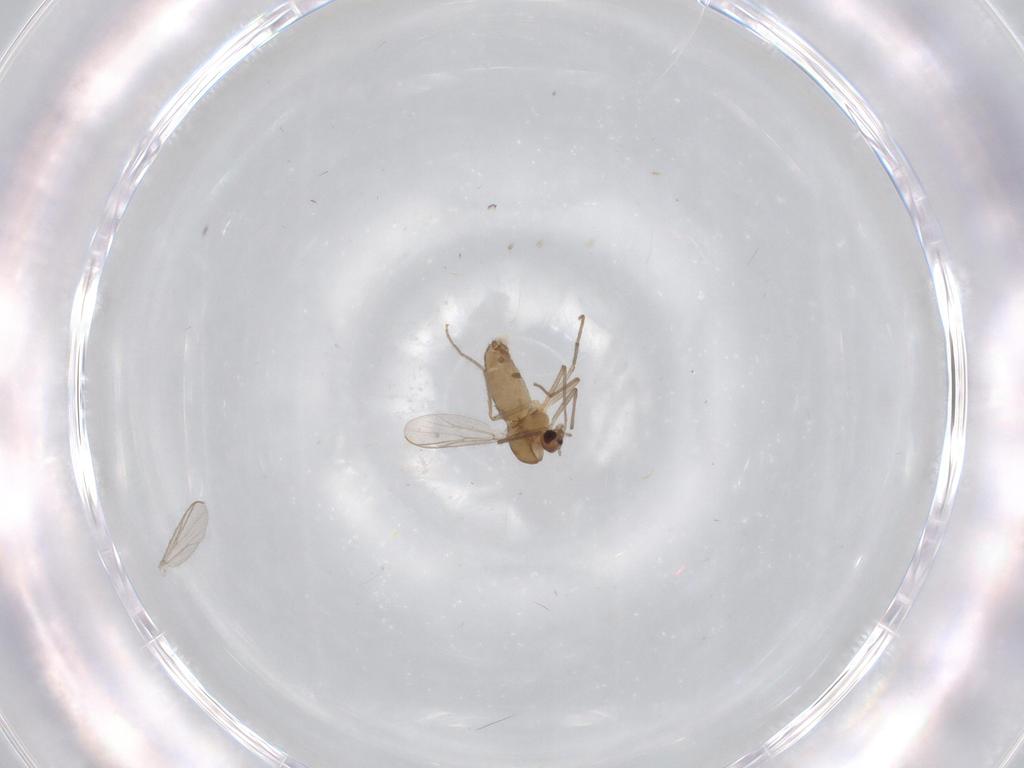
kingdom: Animalia
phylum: Arthropoda
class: Insecta
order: Diptera
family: Chironomidae
